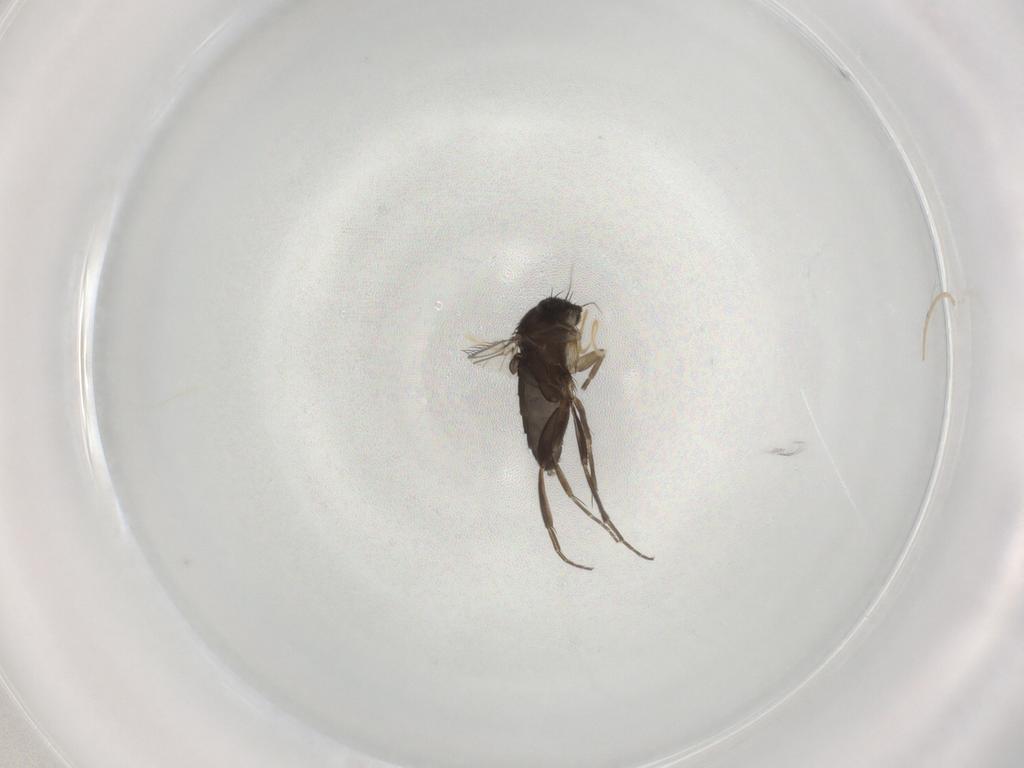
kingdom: Animalia
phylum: Arthropoda
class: Insecta
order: Diptera
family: Phoridae
